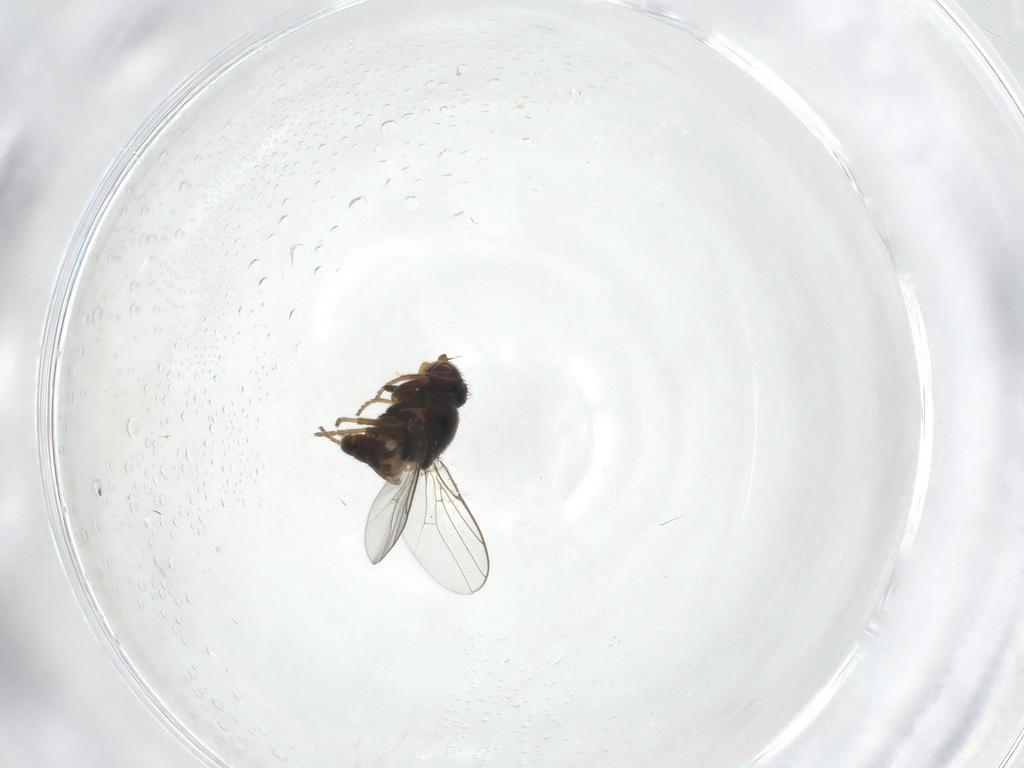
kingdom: Animalia
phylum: Arthropoda
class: Insecta
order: Diptera
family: Chloropidae
